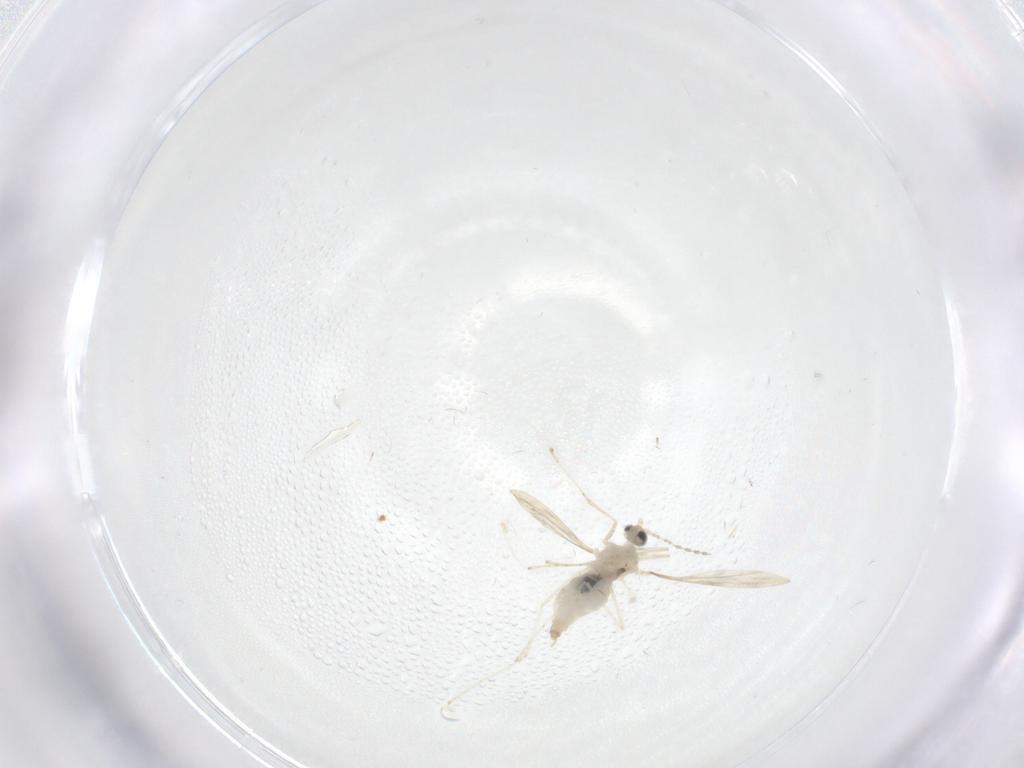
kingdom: Animalia
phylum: Arthropoda
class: Insecta
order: Diptera
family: Cecidomyiidae
